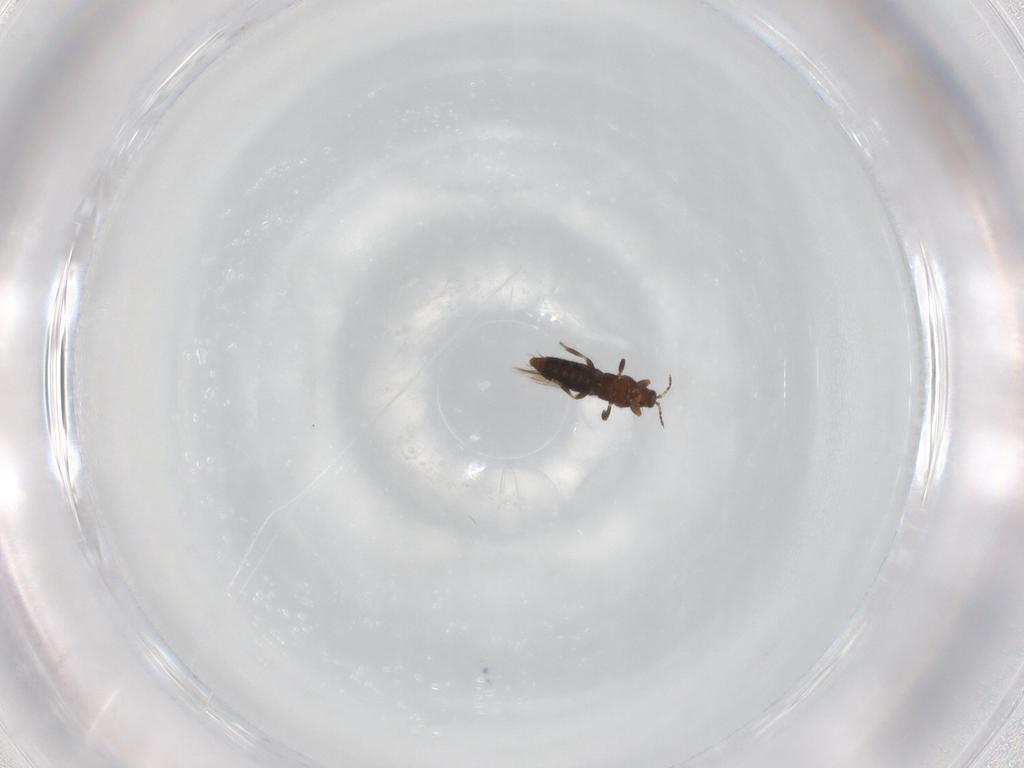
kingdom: Animalia
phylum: Arthropoda
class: Insecta
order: Thysanoptera
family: Thripidae
